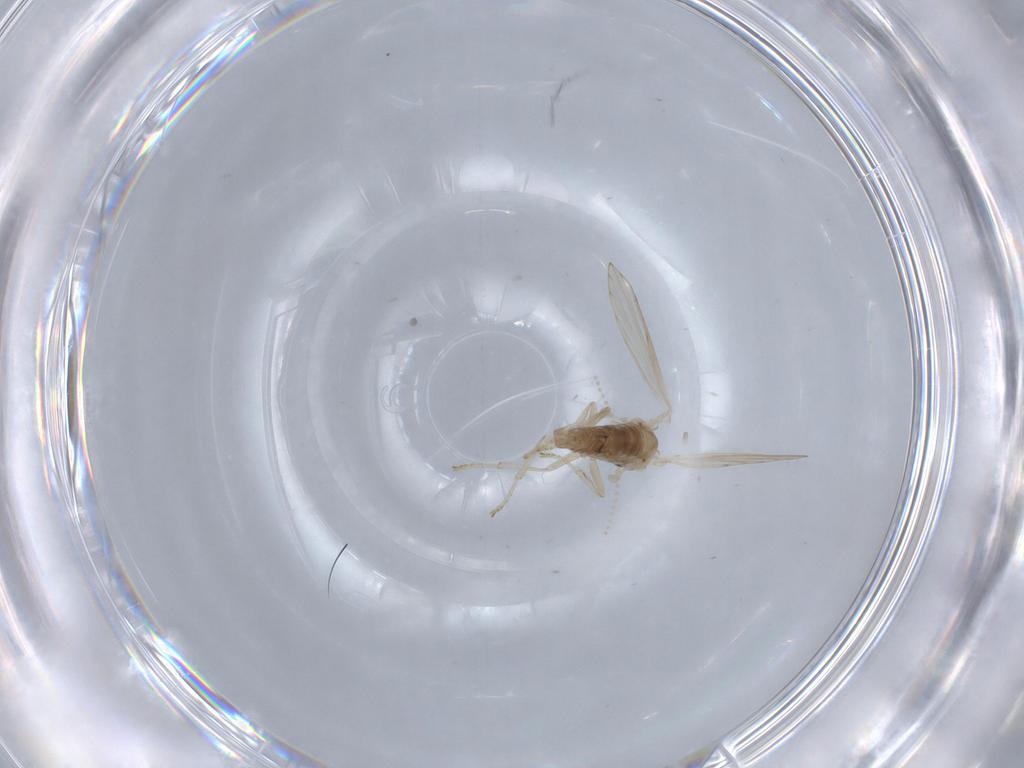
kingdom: Animalia
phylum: Arthropoda
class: Insecta
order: Diptera
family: Psychodidae
